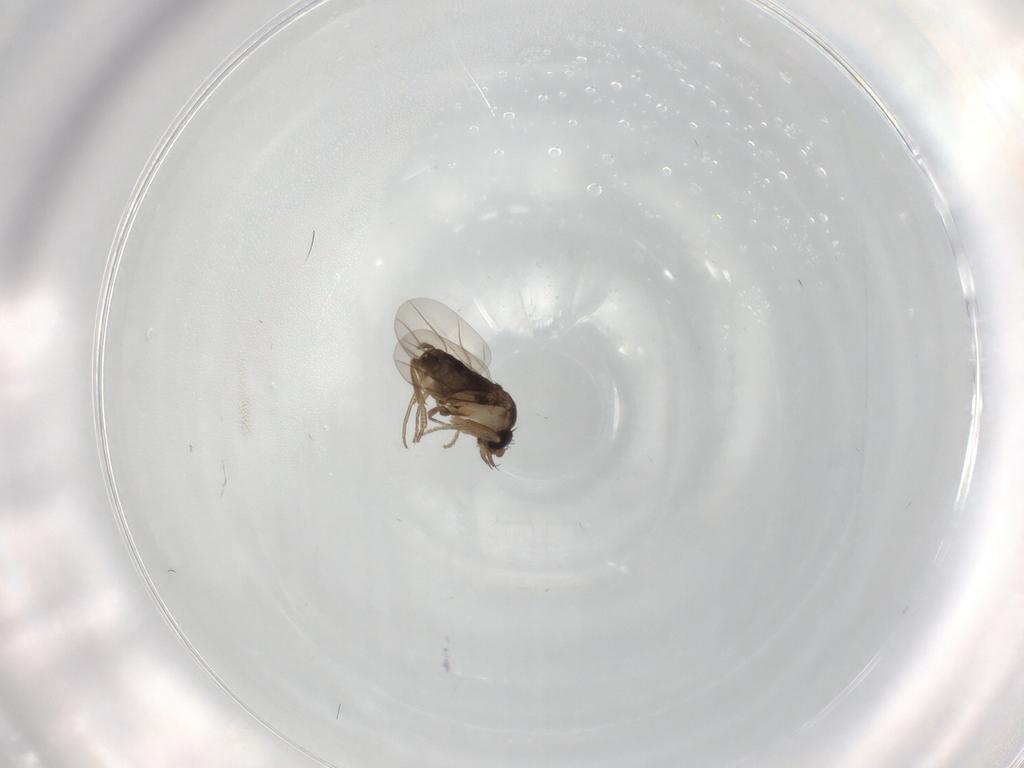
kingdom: Animalia
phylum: Arthropoda
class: Insecta
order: Diptera
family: Phoridae
